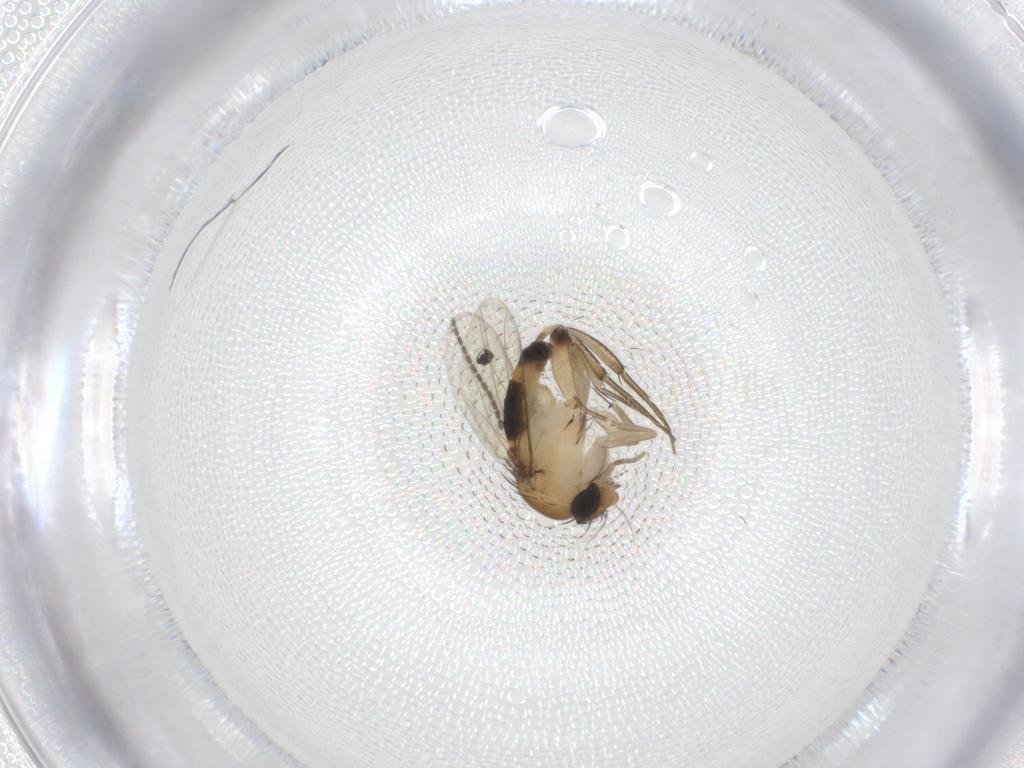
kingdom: Animalia
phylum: Arthropoda
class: Insecta
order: Diptera
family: Phoridae
